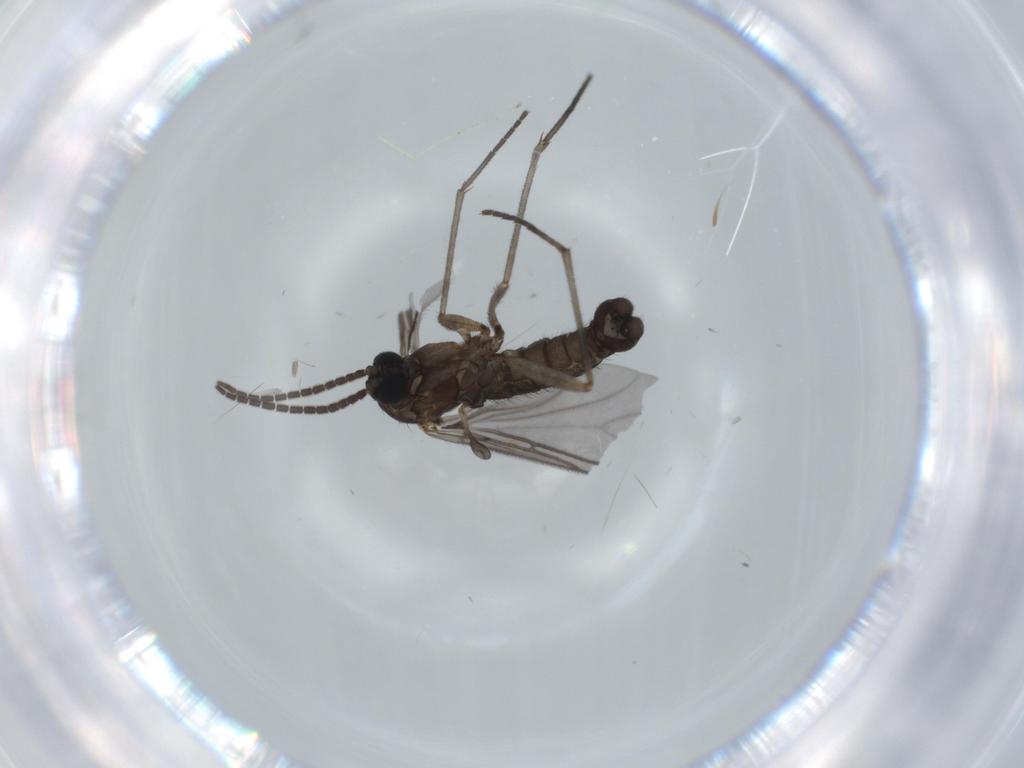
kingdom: Animalia
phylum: Arthropoda
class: Insecta
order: Diptera
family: Sciaridae
